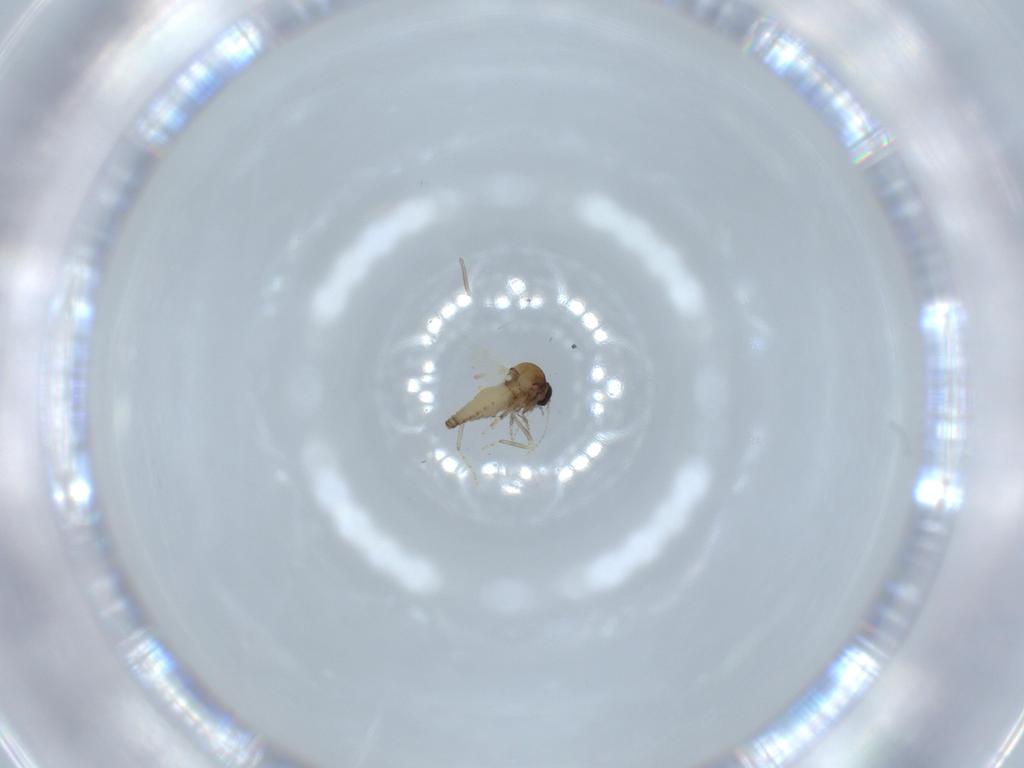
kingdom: Animalia
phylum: Arthropoda
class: Insecta
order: Diptera
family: Ceratopogonidae
